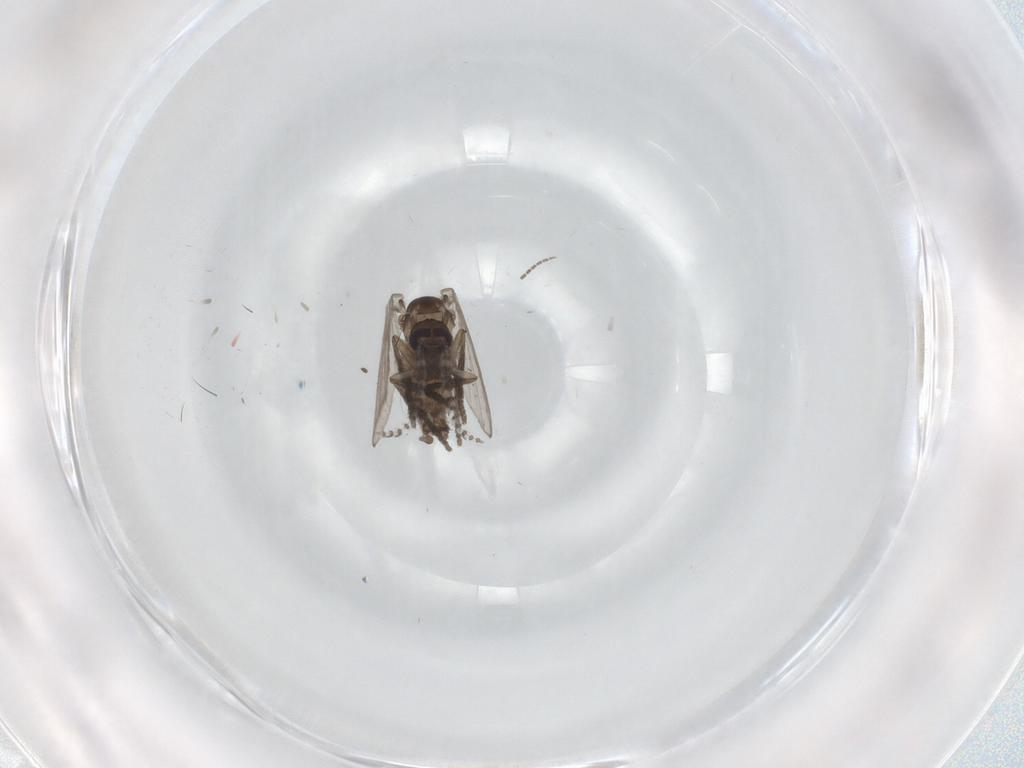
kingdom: Animalia
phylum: Arthropoda
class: Insecta
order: Diptera
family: Psychodidae
